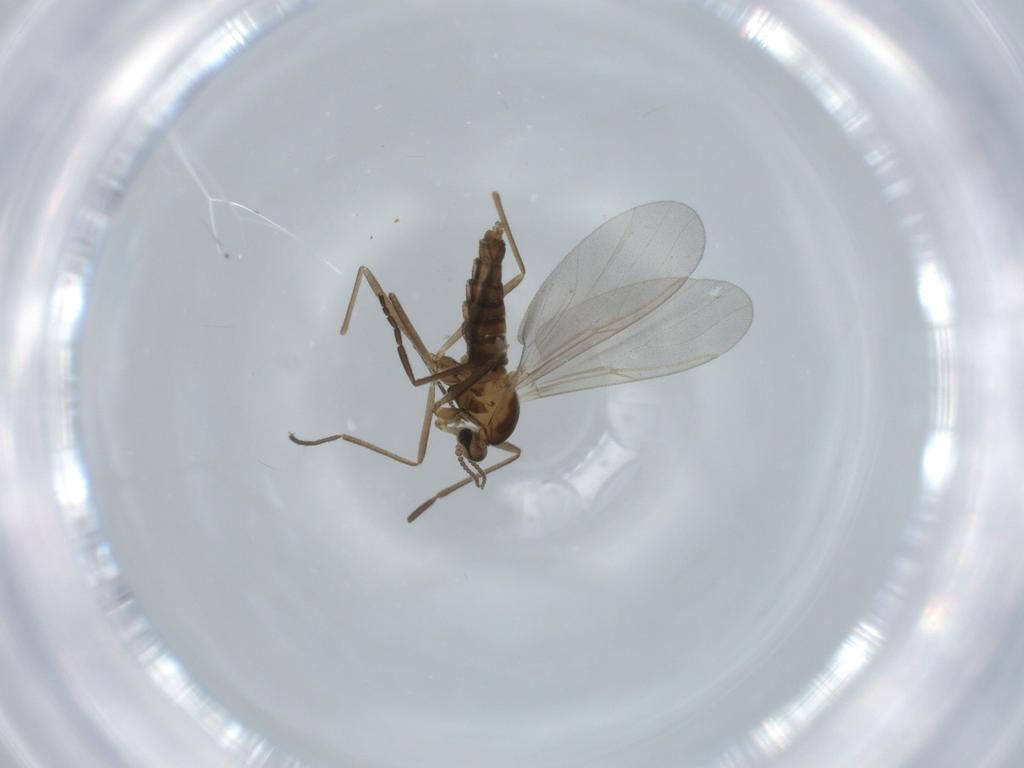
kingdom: Animalia
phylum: Arthropoda
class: Insecta
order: Diptera
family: Cecidomyiidae
